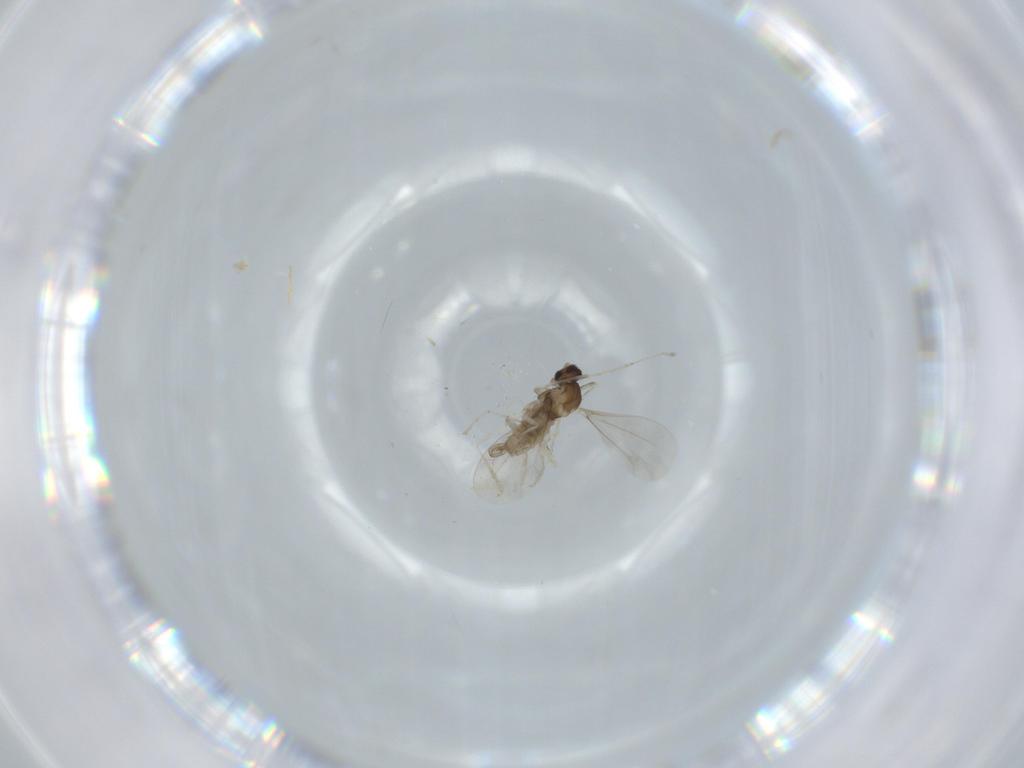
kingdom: Animalia
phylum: Arthropoda
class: Insecta
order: Diptera
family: Cecidomyiidae
